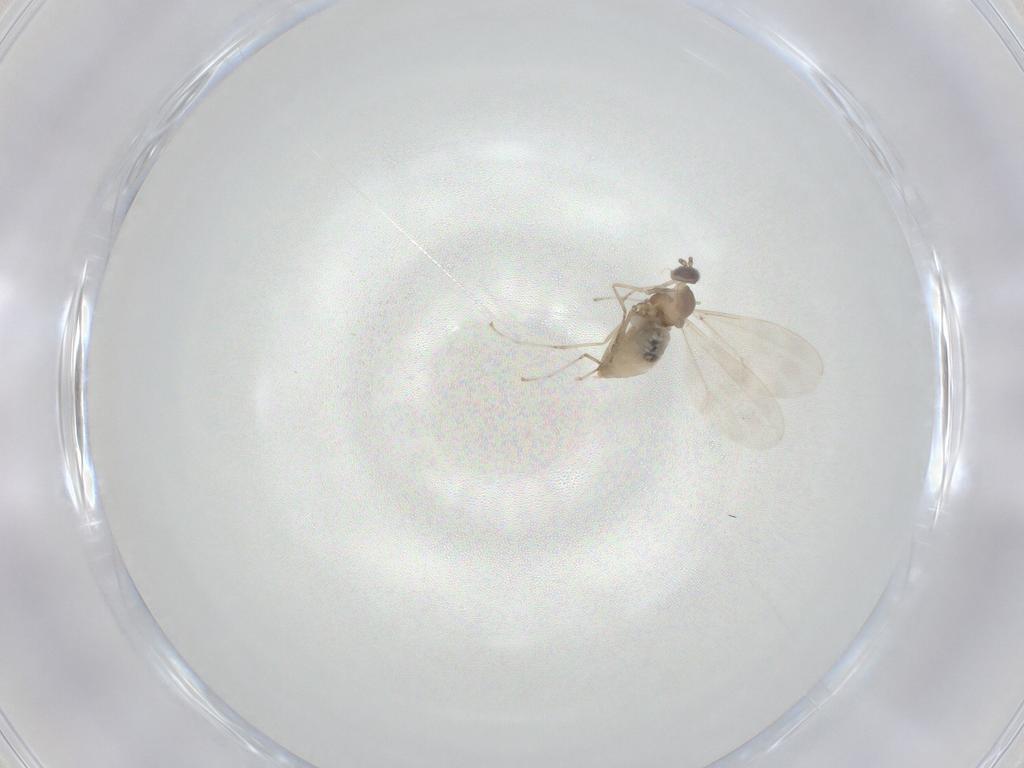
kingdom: Animalia
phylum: Arthropoda
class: Insecta
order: Diptera
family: Cecidomyiidae
